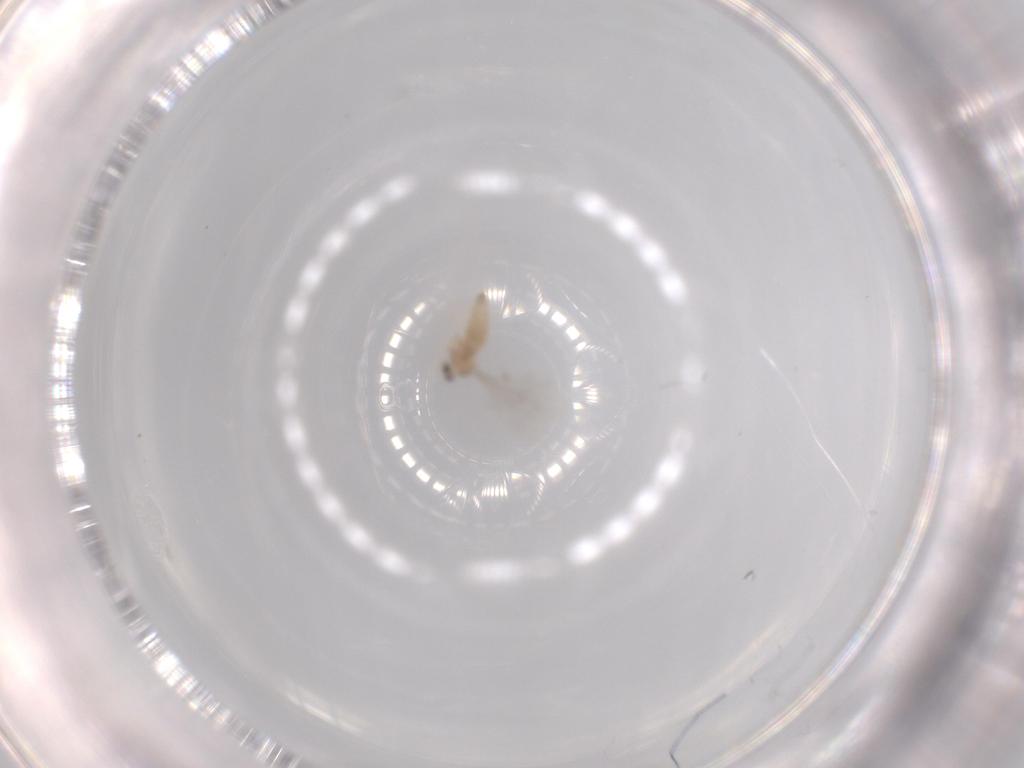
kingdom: Animalia
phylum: Arthropoda
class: Insecta
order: Diptera
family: Cecidomyiidae
